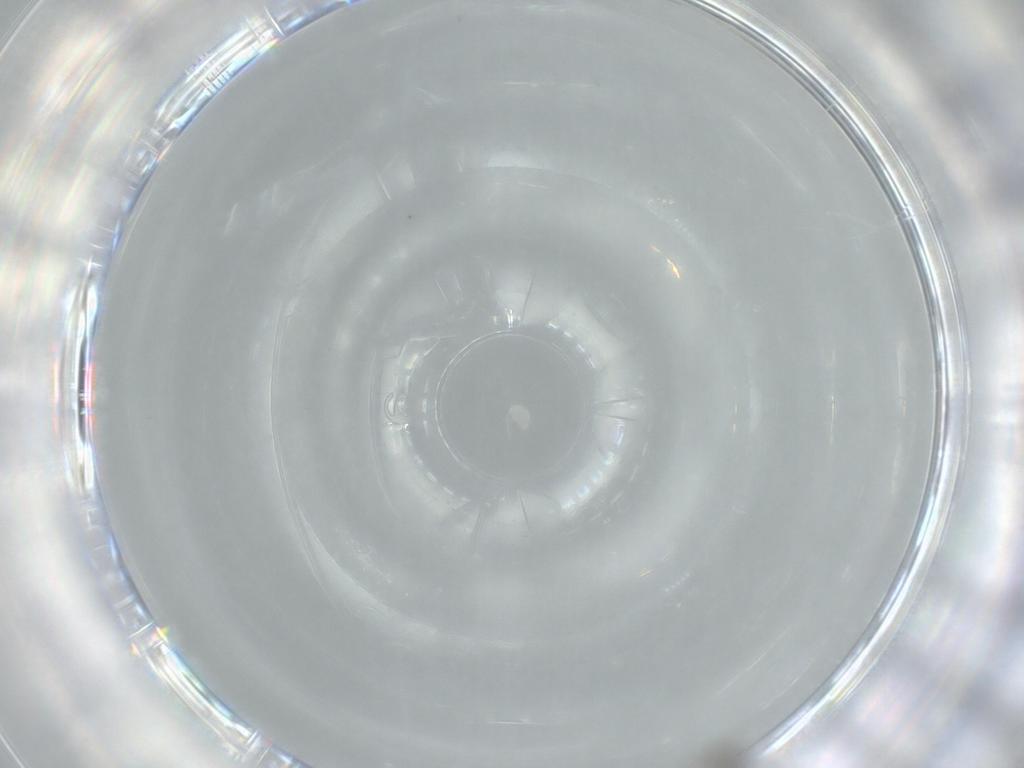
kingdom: Animalia
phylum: Arthropoda
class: Insecta
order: Diptera
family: Cecidomyiidae
